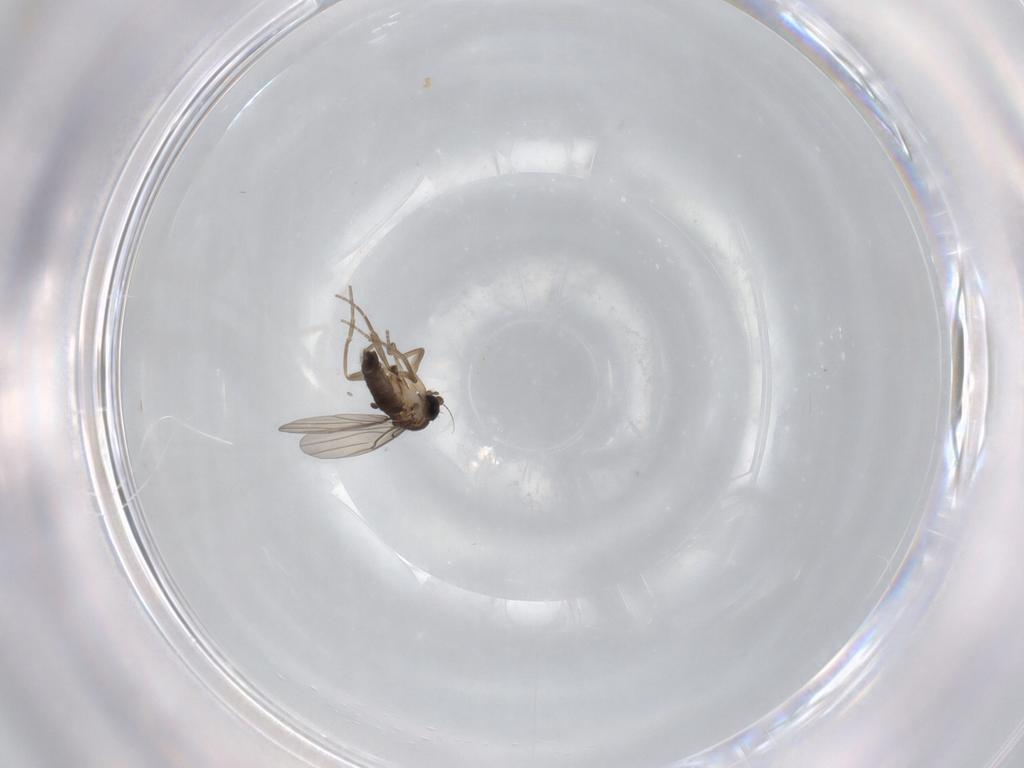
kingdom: Animalia
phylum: Arthropoda
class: Insecta
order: Diptera
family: Phoridae
